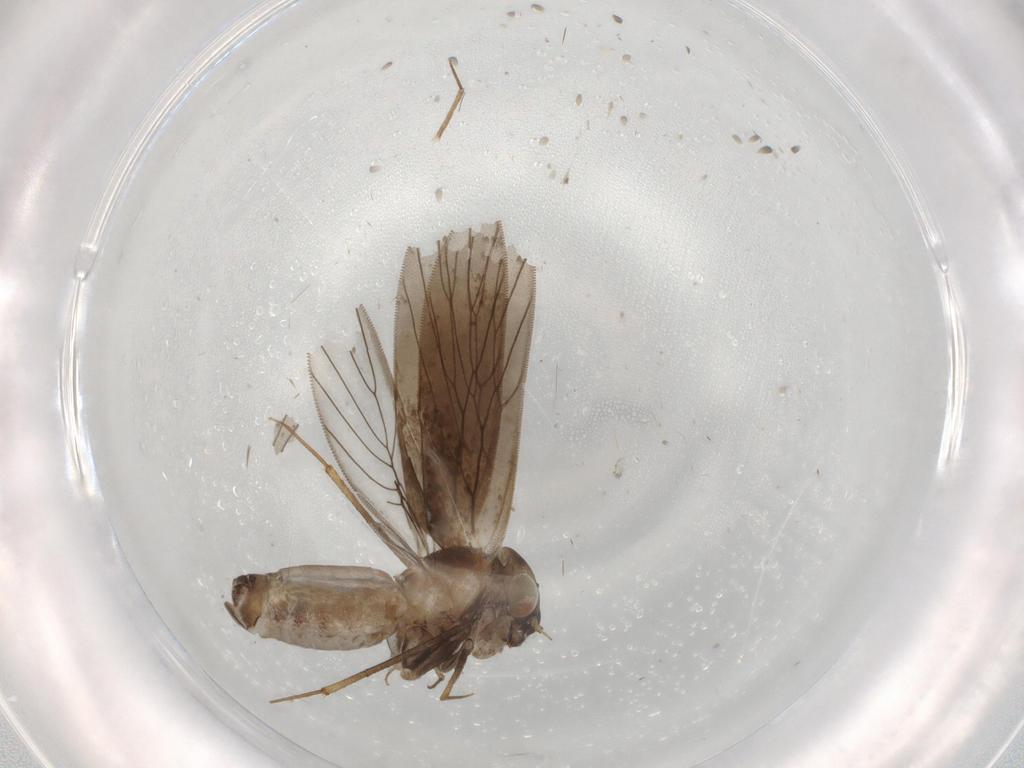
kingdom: Animalia
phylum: Arthropoda
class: Insecta
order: Psocodea
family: Lepidopsocidae
